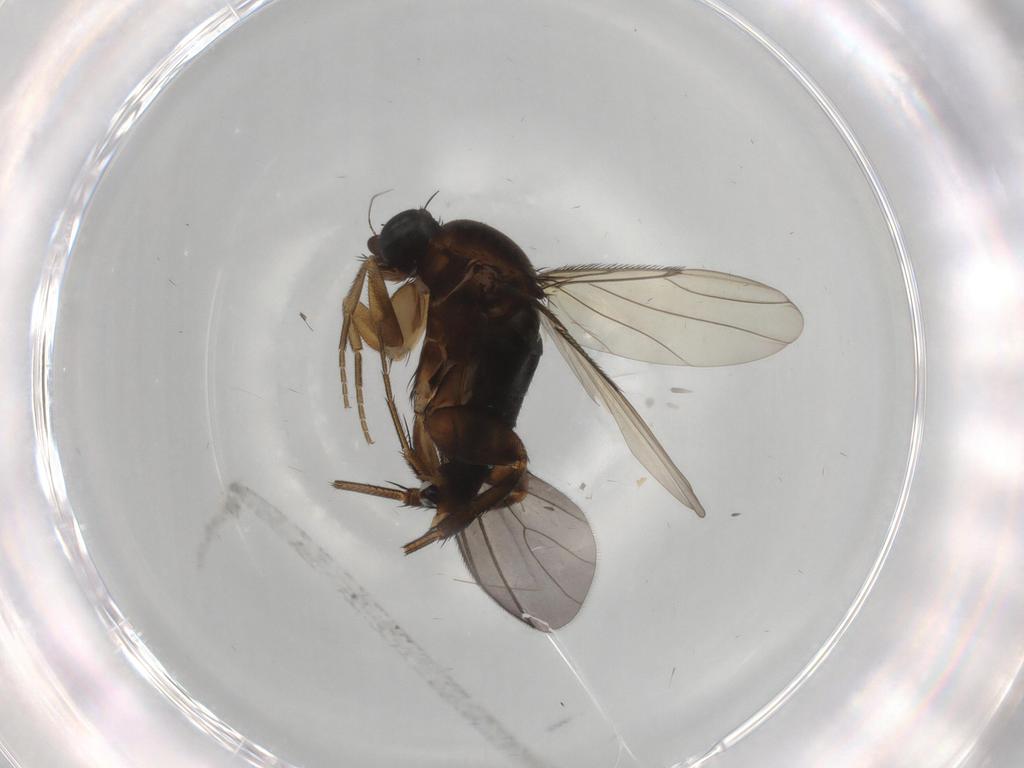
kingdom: Animalia
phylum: Arthropoda
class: Insecta
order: Diptera
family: Phoridae
